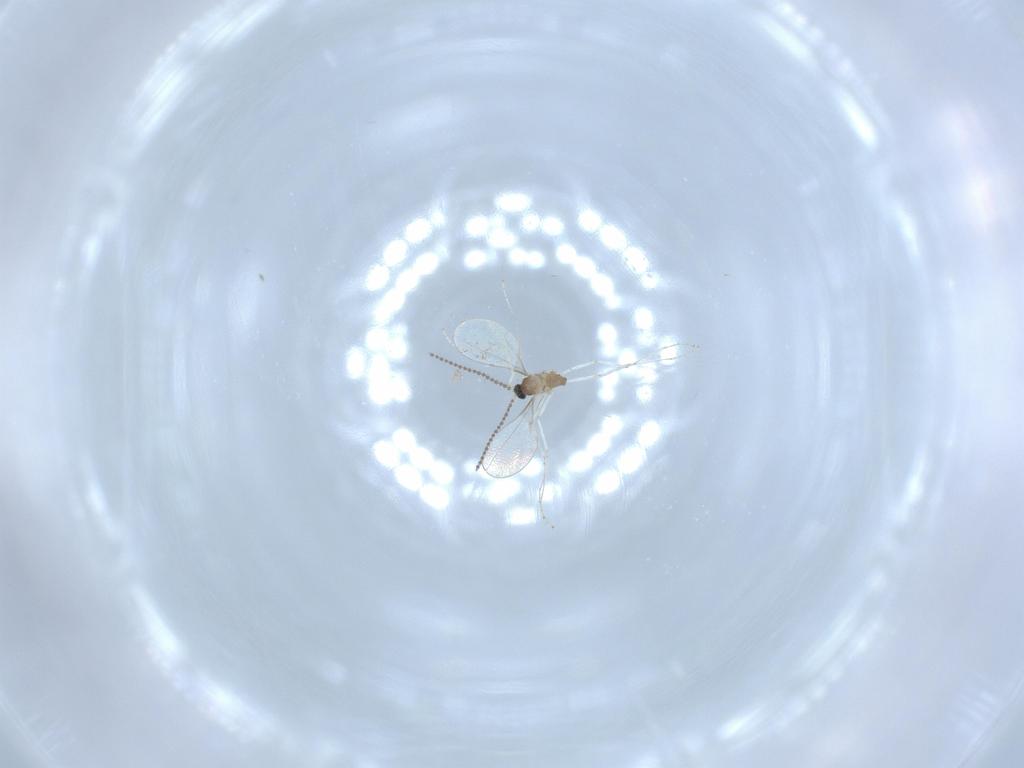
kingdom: Animalia
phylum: Arthropoda
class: Insecta
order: Diptera
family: Cecidomyiidae
